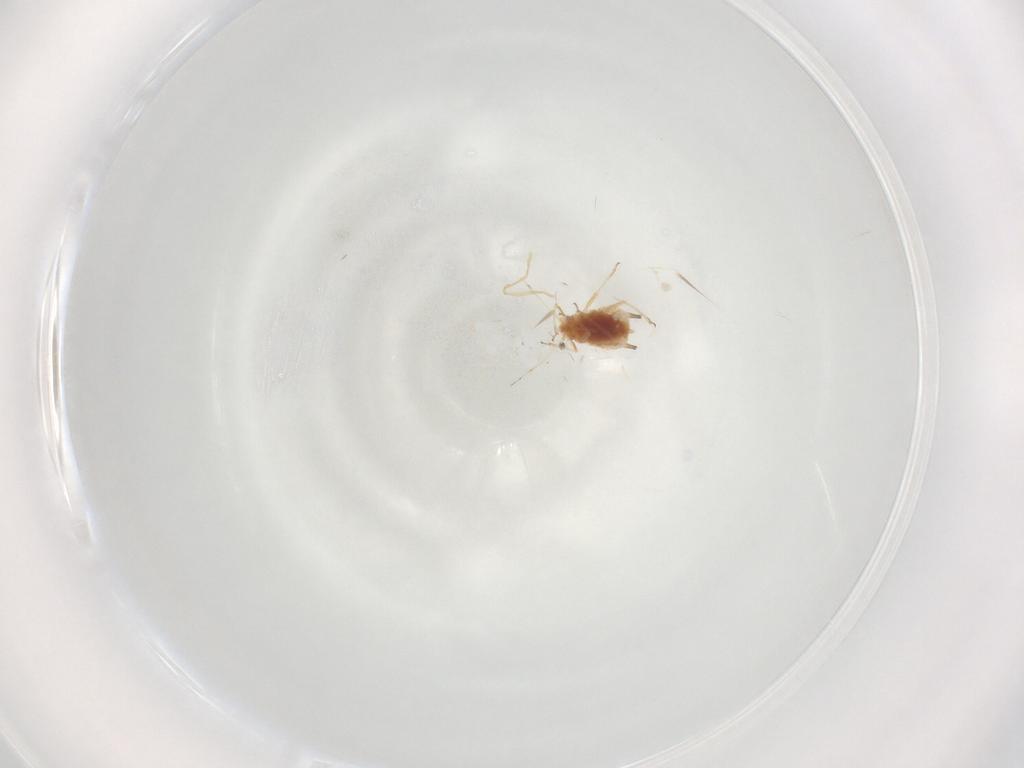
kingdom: Animalia
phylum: Arthropoda
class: Insecta
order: Hemiptera
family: Aphididae
